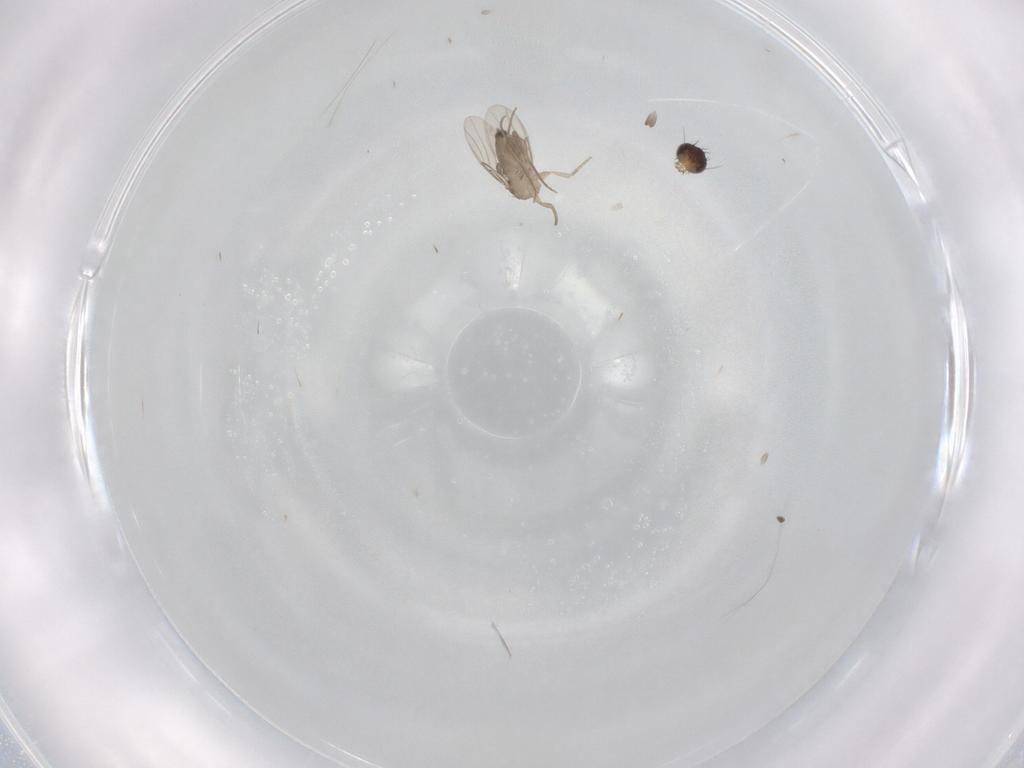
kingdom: Animalia
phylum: Arthropoda
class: Insecta
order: Diptera
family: Phoridae
